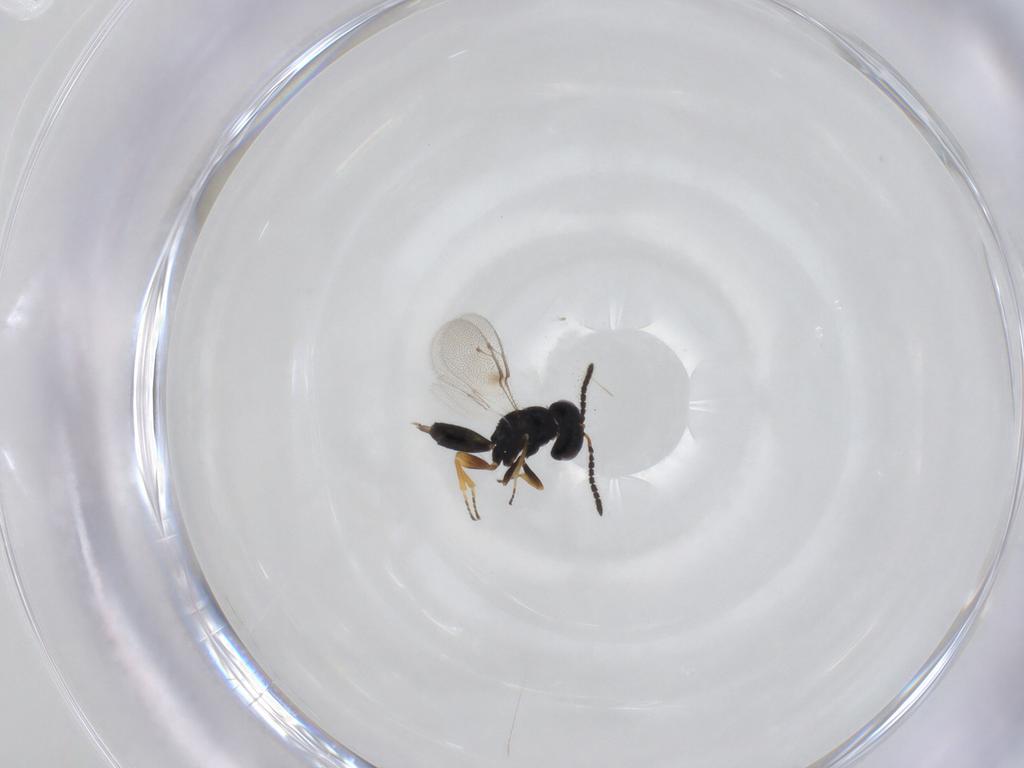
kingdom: Animalia
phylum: Arthropoda
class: Insecta
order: Hymenoptera
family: Pteromalidae
